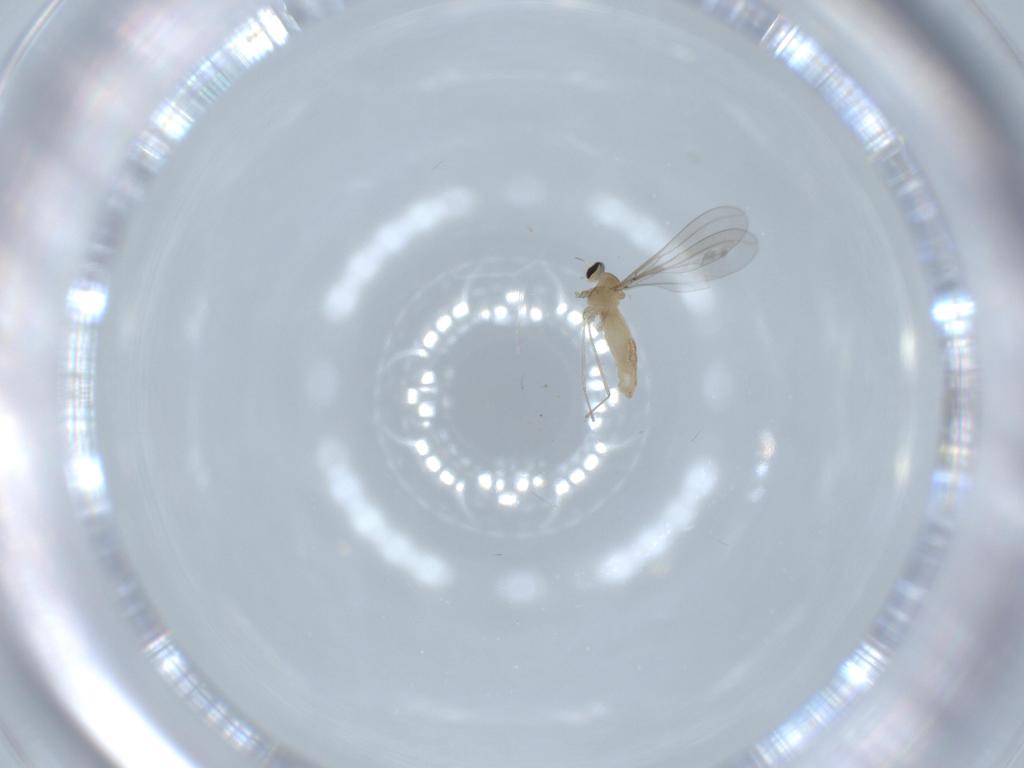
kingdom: Animalia
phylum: Arthropoda
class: Insecta
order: Diptera
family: Cecidomyiidae
